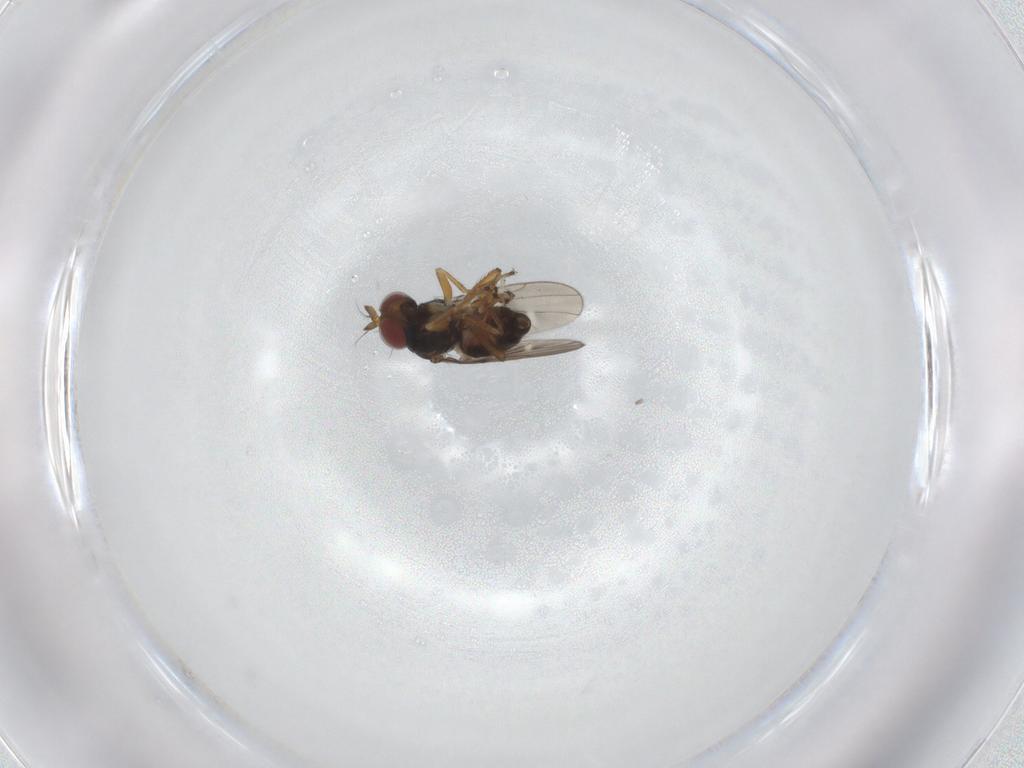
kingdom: Animalia
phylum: Arthropoda
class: Insecta
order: Diptera
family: Ephydridae
